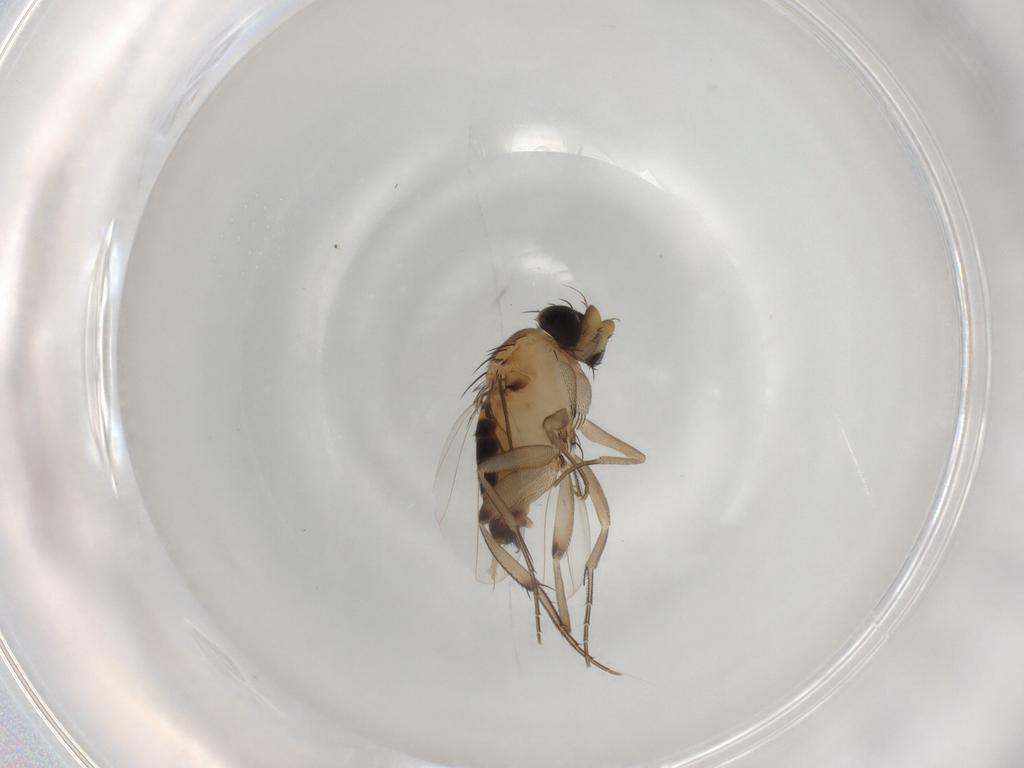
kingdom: Animalia
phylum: Arthropoda
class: Insecta
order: Diptera
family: Phoridae
